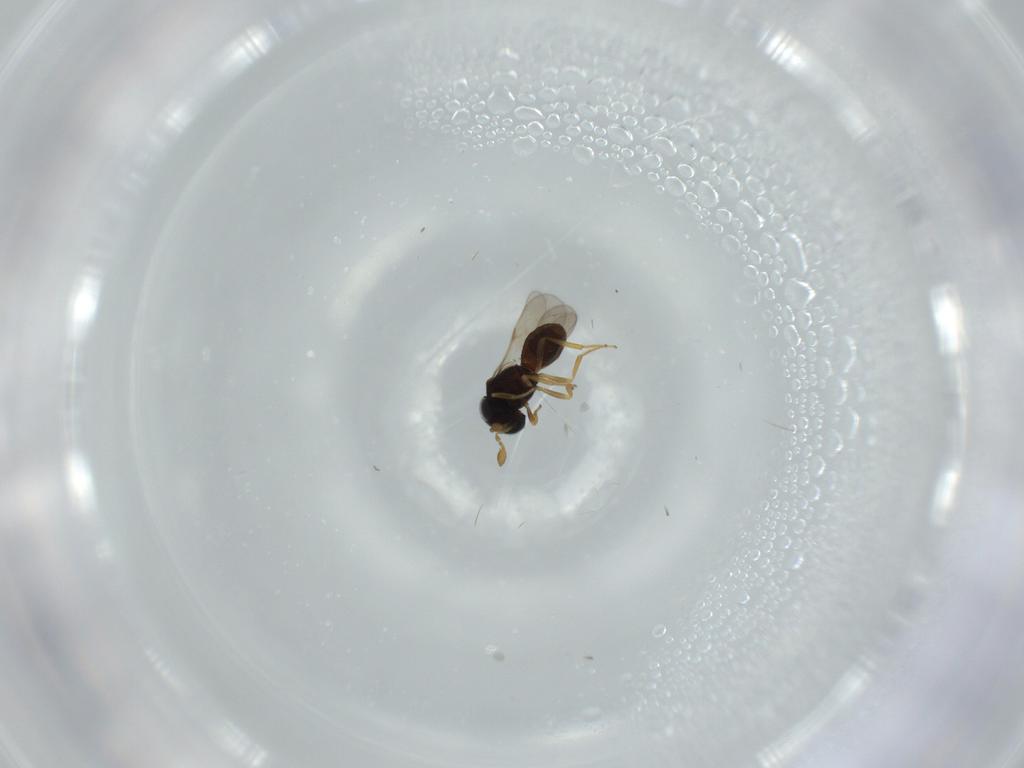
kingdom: Animalia
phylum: Arthropoda
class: Insecta
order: Hymenoptera
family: Scelionidae
